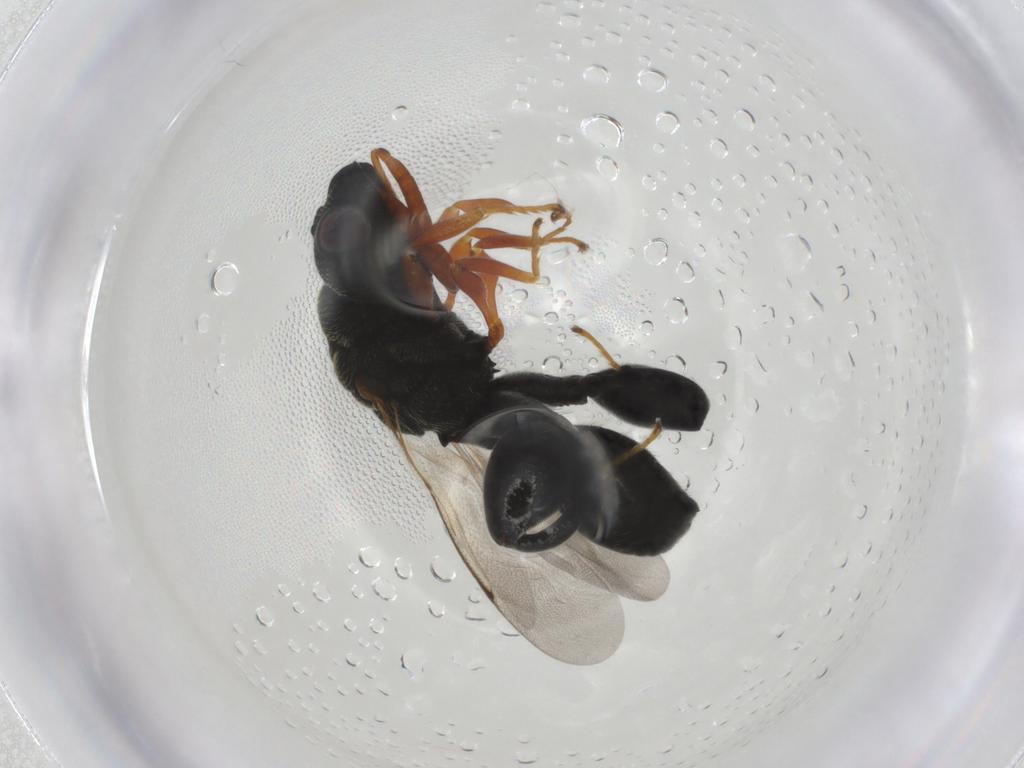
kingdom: Animalia
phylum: Arthropoda
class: Insecta
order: Hymenoptera
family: Chalcididae
